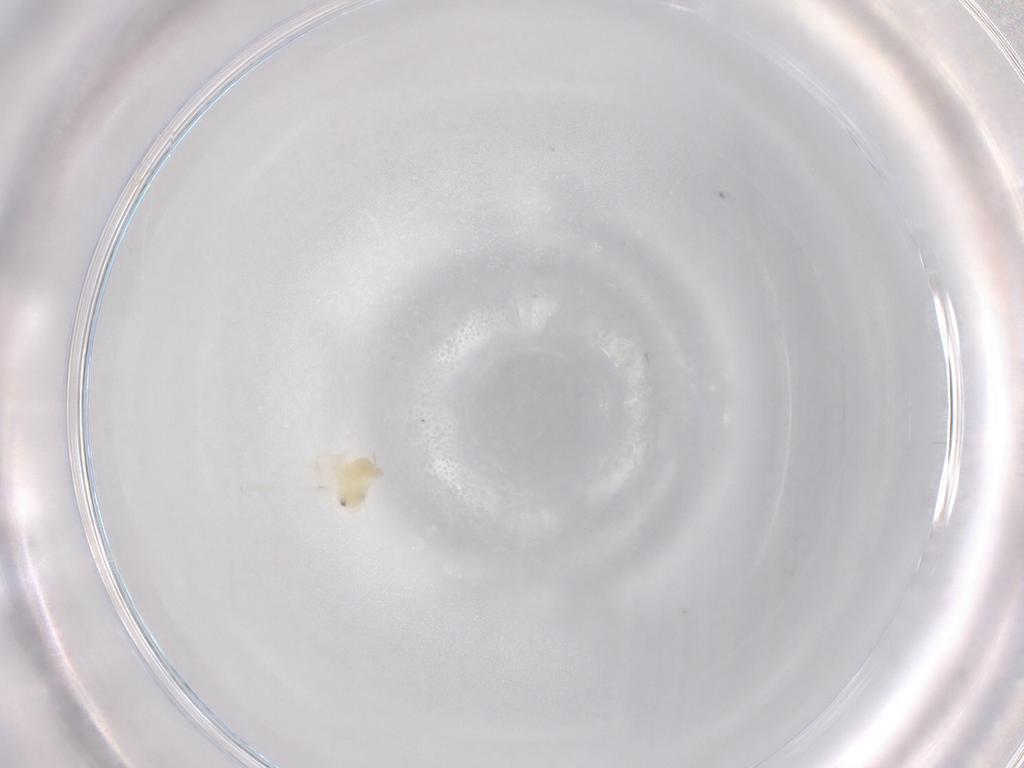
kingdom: Animalia
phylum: Arthropoda
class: Insecta
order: Hemiptera
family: Aleyrodidae
